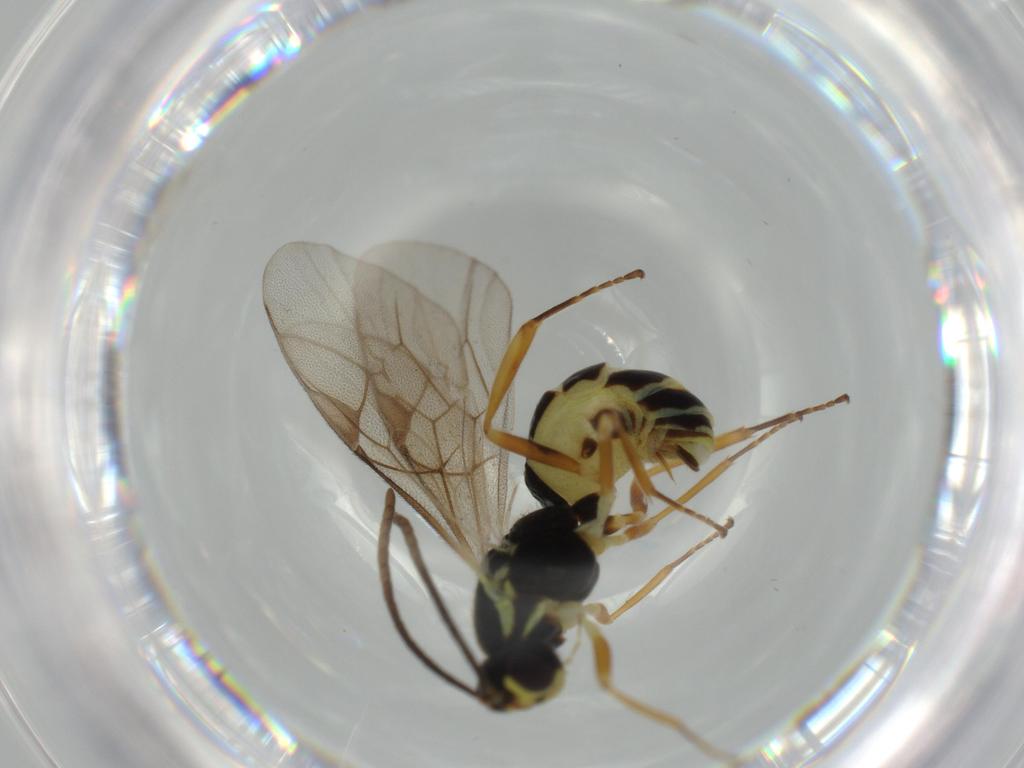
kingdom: Animalia
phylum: Arthropoda
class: Insecta
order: Hymenoptera
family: Ichneumonidae
